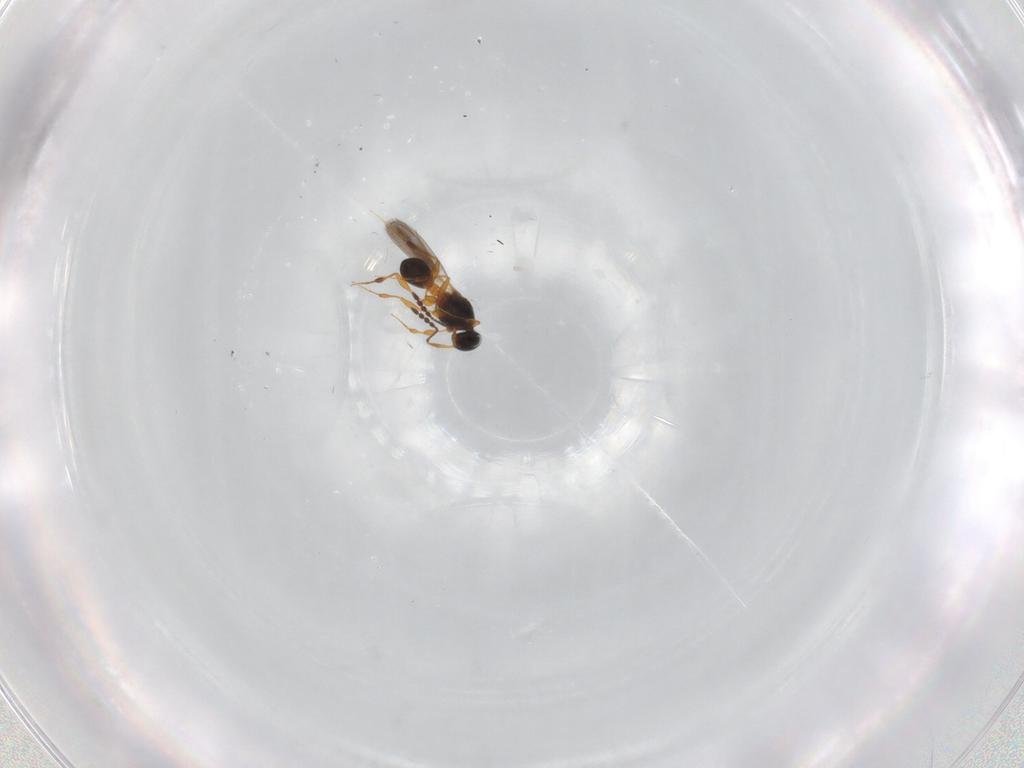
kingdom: Animalia
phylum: Arthropoda
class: Insecta
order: Hymenoptera
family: Platygastridae
